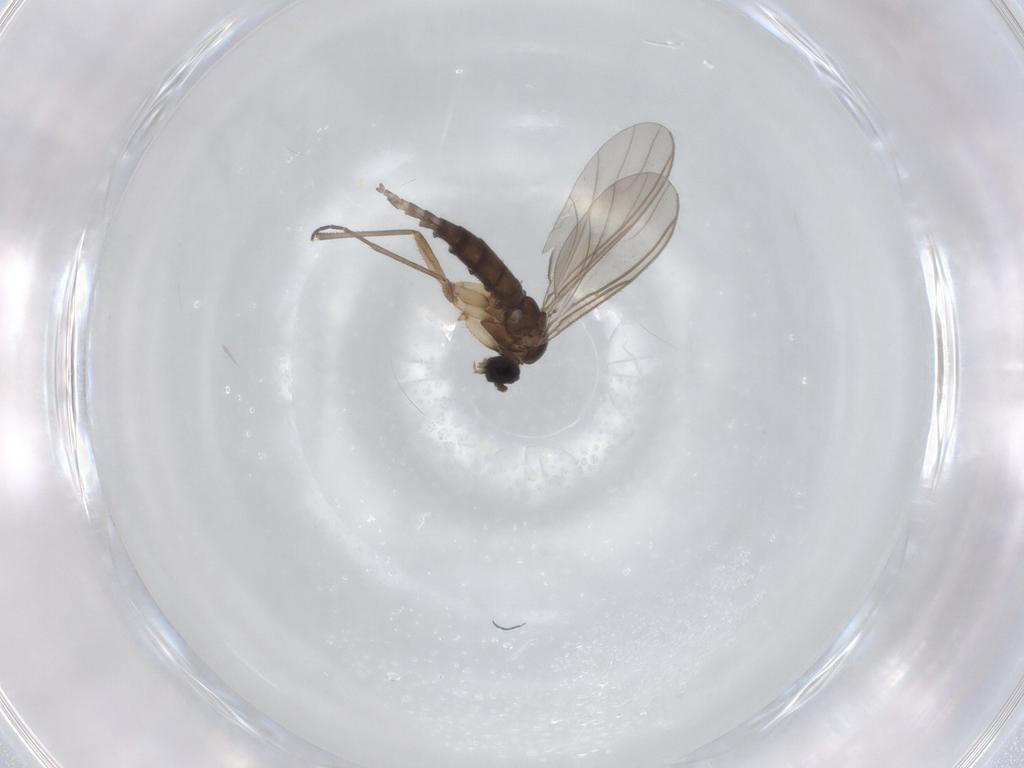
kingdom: Animalia
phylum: Arthropoda
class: Insecta
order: Diptera
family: Sciaridae
